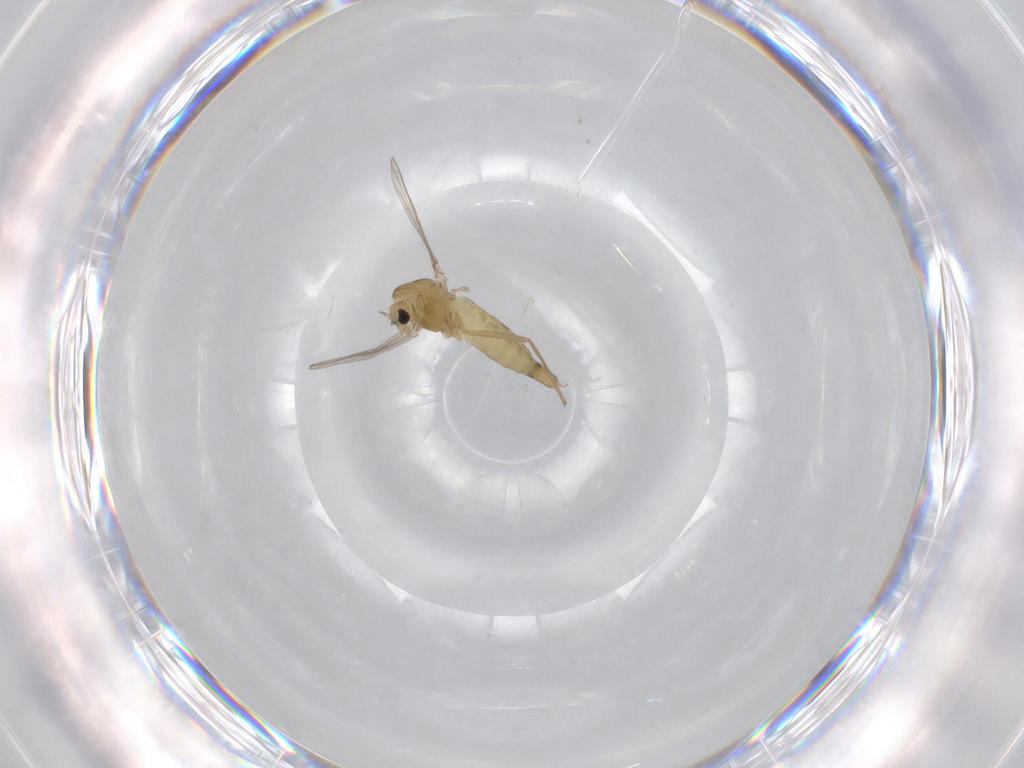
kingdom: Animalia
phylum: Arthropoda
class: Insecta
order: Diptera
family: Chironomidae
